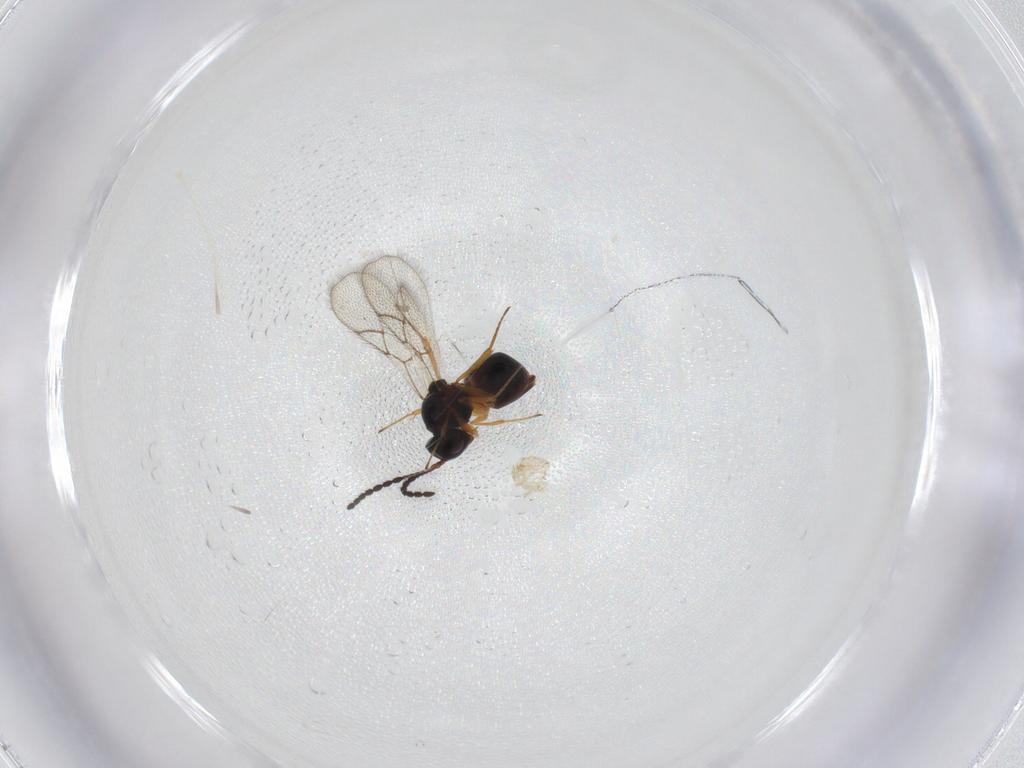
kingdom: Animalia
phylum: Arthropoda
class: Insecta
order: Hymenoptera
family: Figitidae
